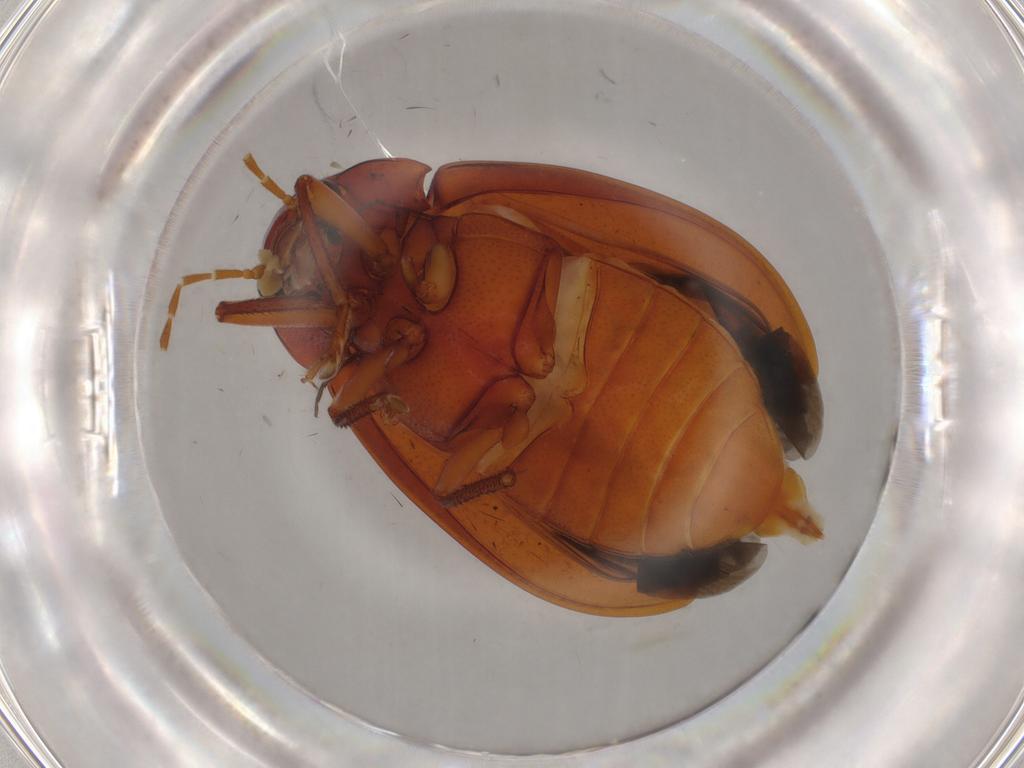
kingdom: Animalia
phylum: Arthropoda
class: Insecta
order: Coleoptera
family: Ptilodactylidae
